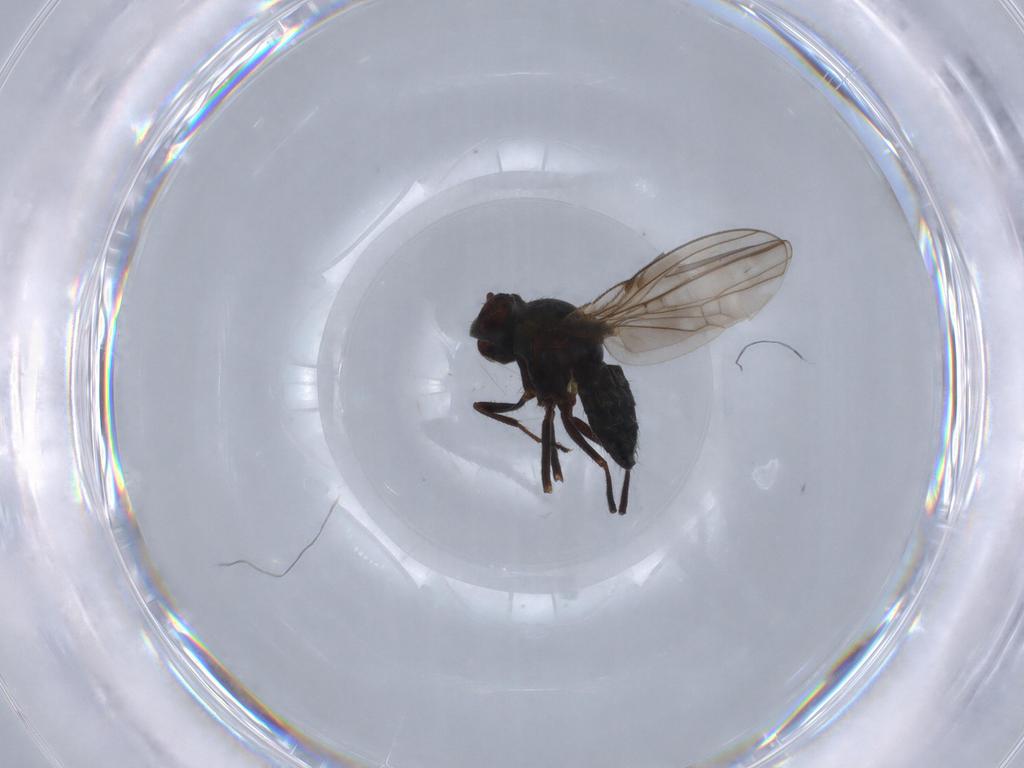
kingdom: Animalia
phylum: Arthropoda
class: Insecta
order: Diptera
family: Ephydridae
